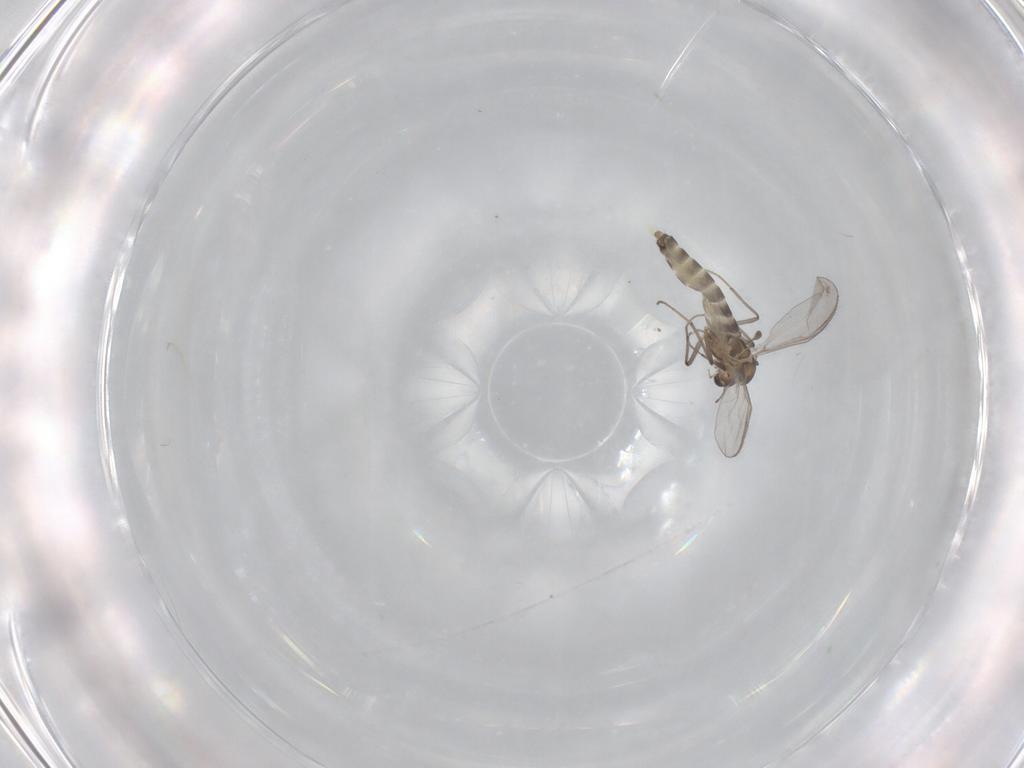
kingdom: Animalia
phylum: Arthropoda
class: Insecta
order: Diptera
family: Chironomidae
